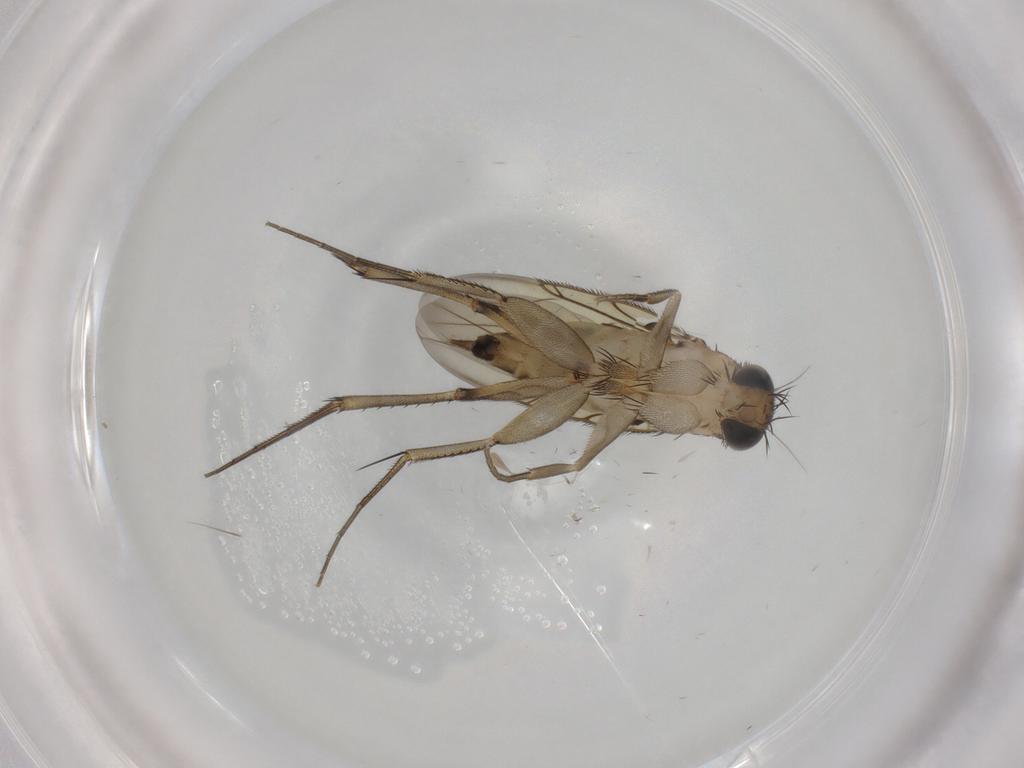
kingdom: Animalia
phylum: Arthropoda
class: Insecta
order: Diptera
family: Phoridae
